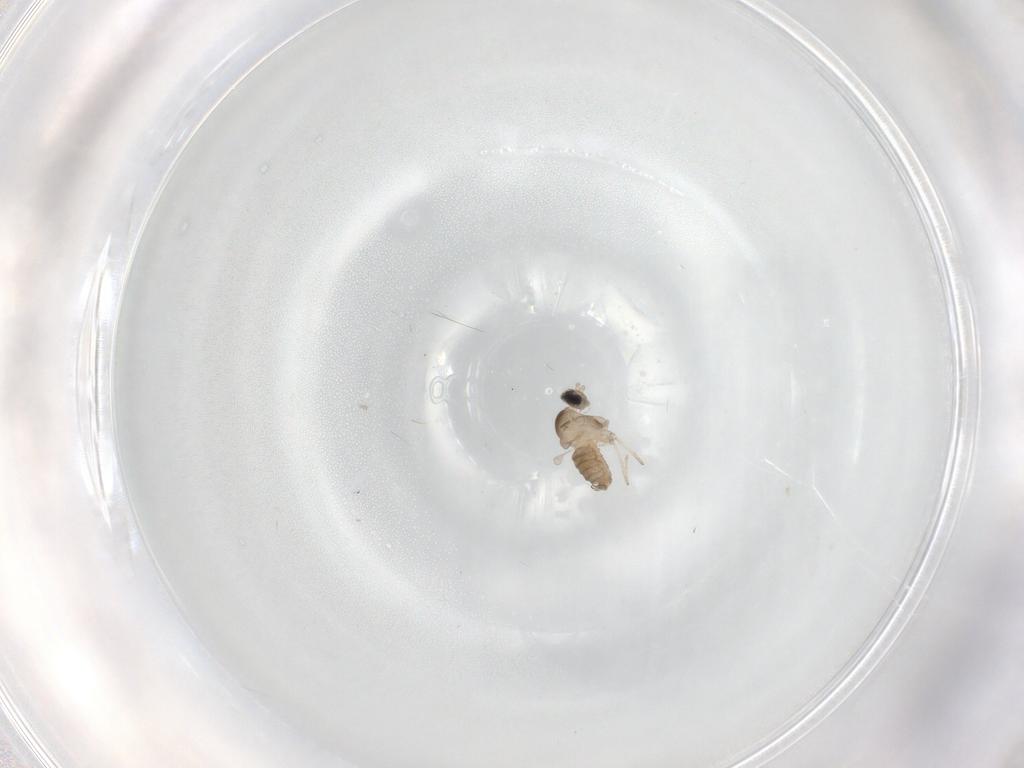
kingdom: Animalia
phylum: Arthropoda
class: Insecta
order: Diptera
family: Cecidomyiidae
